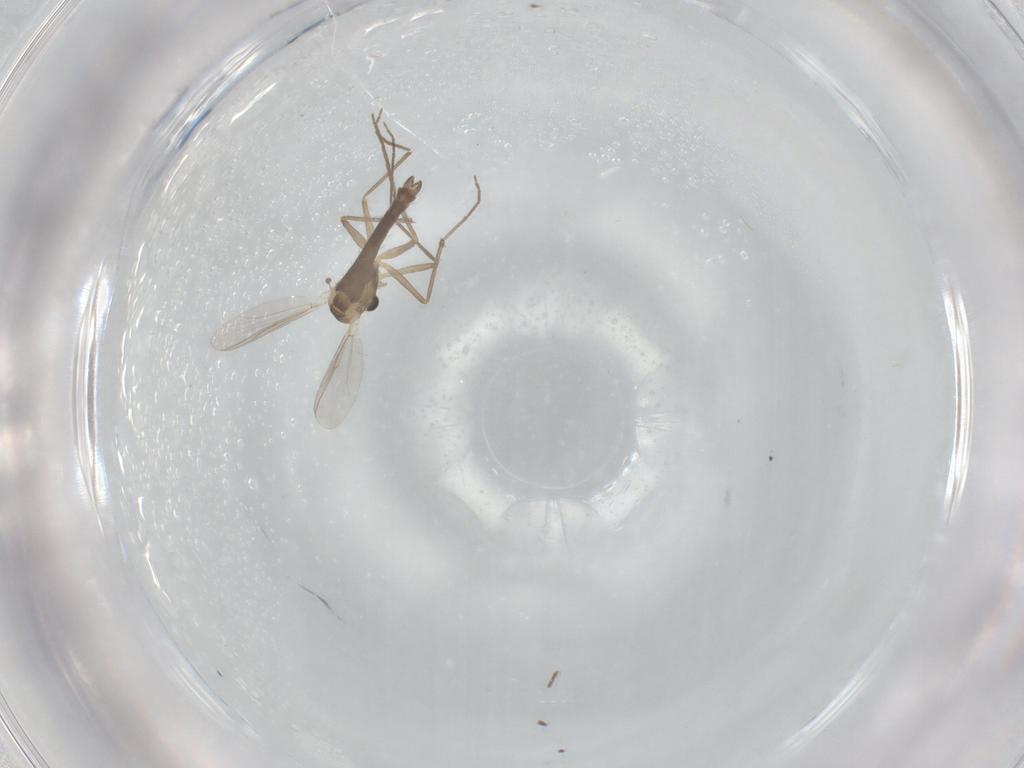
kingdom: Animalia
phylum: Arthropoda
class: Insecta
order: Diptera
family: Chironomidae
